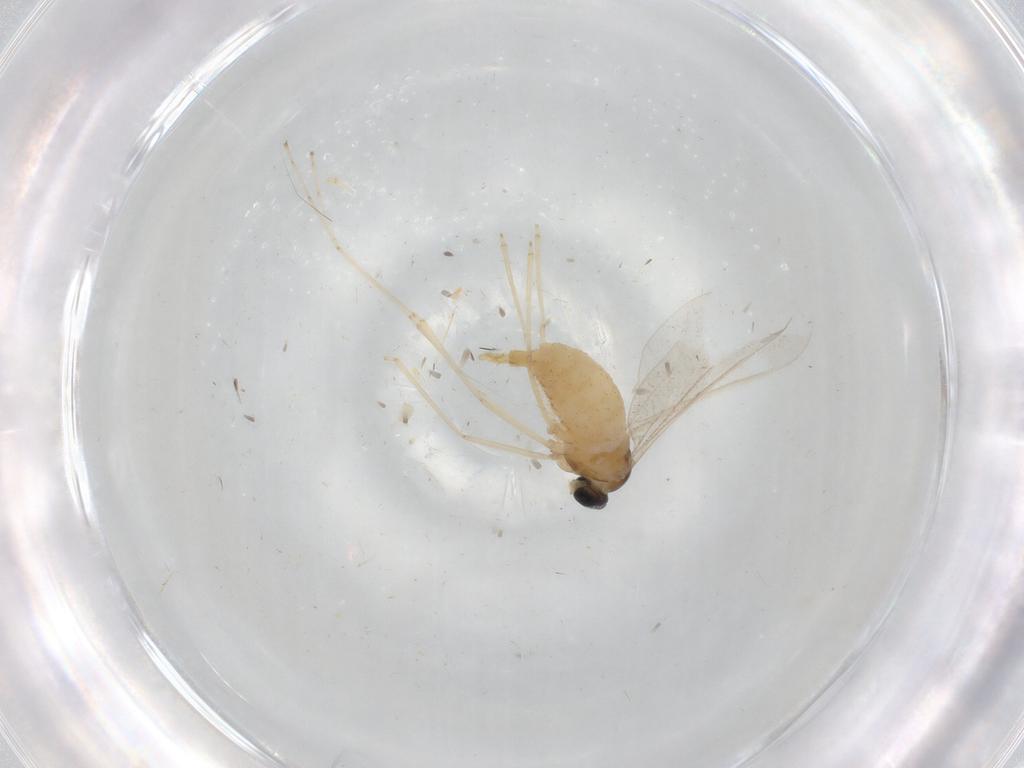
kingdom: Animalia
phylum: Arthropoda
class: Insecta
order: Diptera
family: Cecidomyiidae
